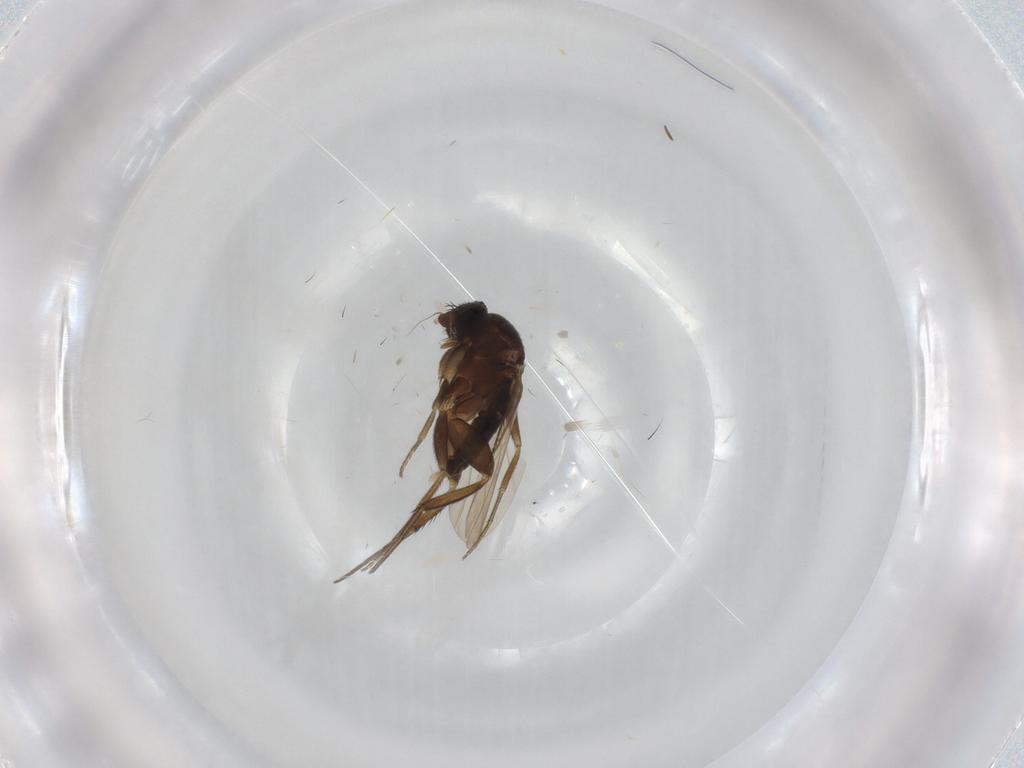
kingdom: Animalia
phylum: Arthropoda
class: Insecta
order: Diptera
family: Phoridae
